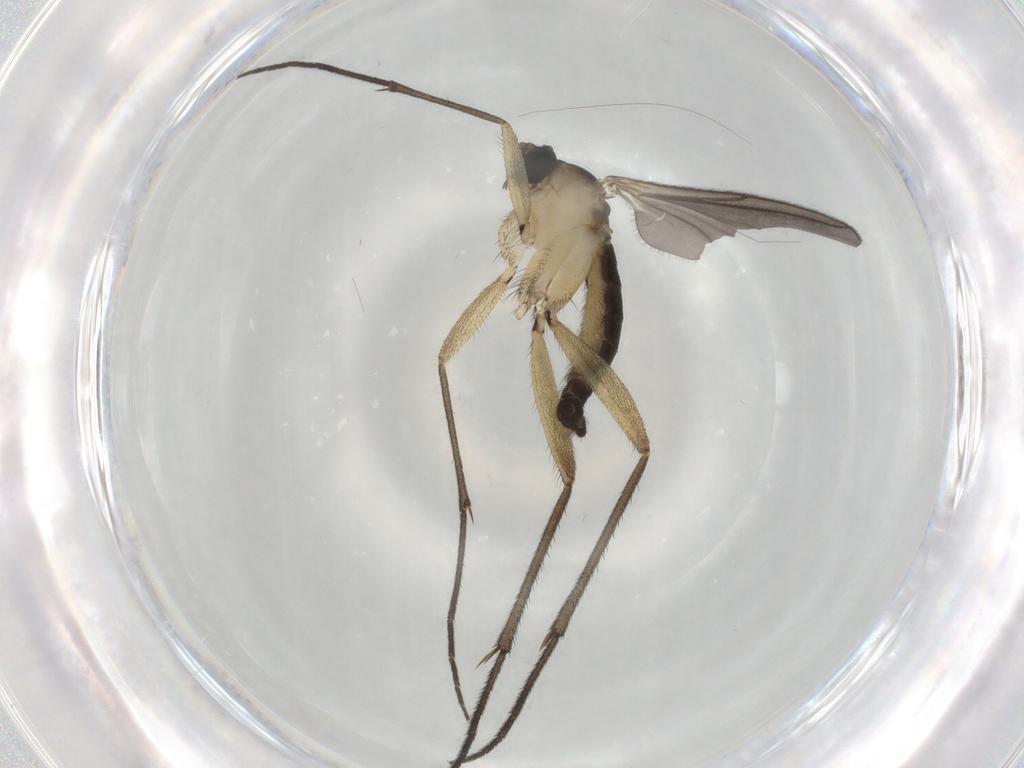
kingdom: Animalia
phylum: Arthropoda
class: Insecta
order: Diptera
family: Sciaridae
